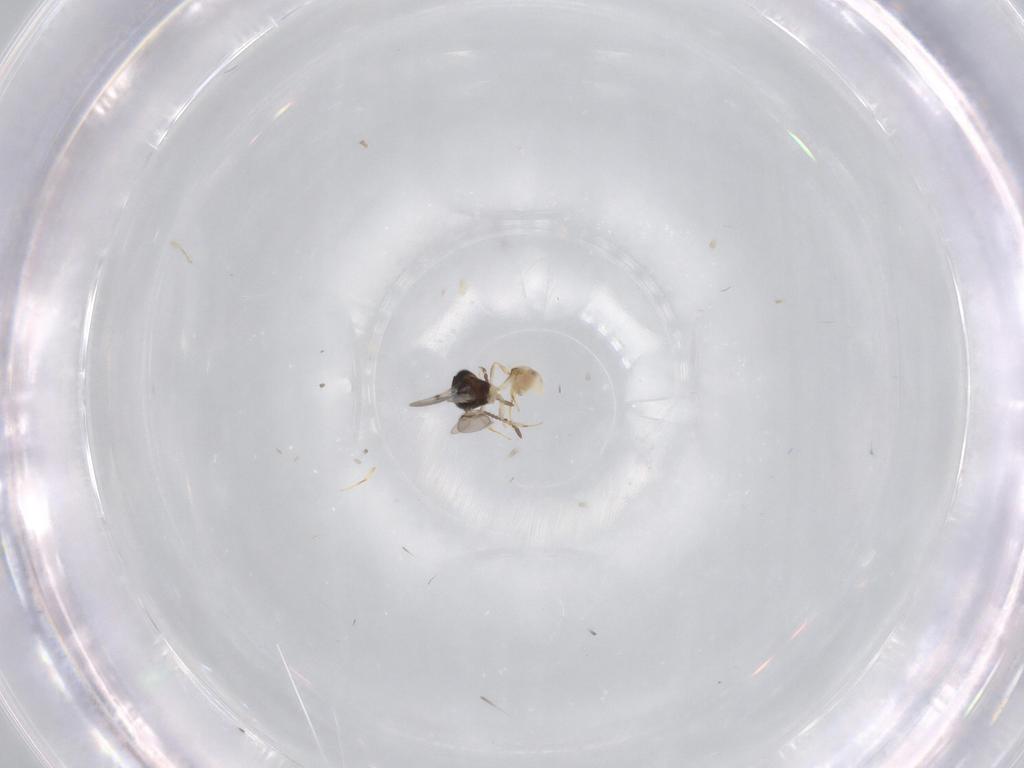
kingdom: Animalia
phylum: Arthropoda
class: Insecta
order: Hymenoptera
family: Scelionidae
